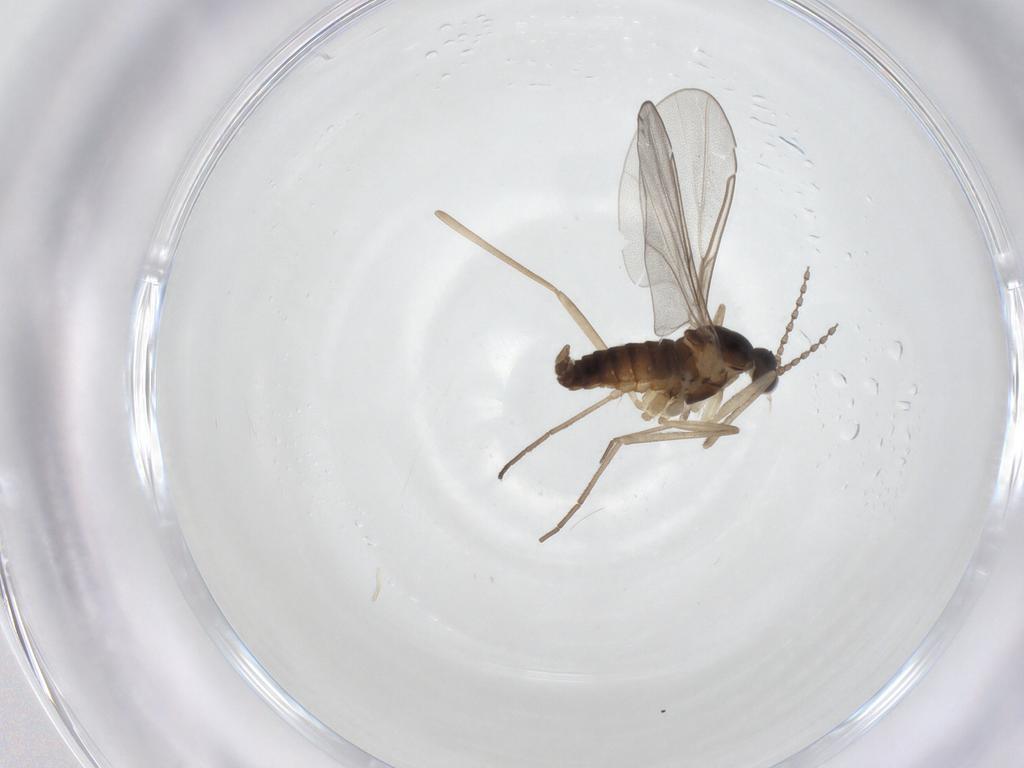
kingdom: Animalia
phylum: Arthropoda
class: Insecta
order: Diptera
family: Cecidomyiidae
